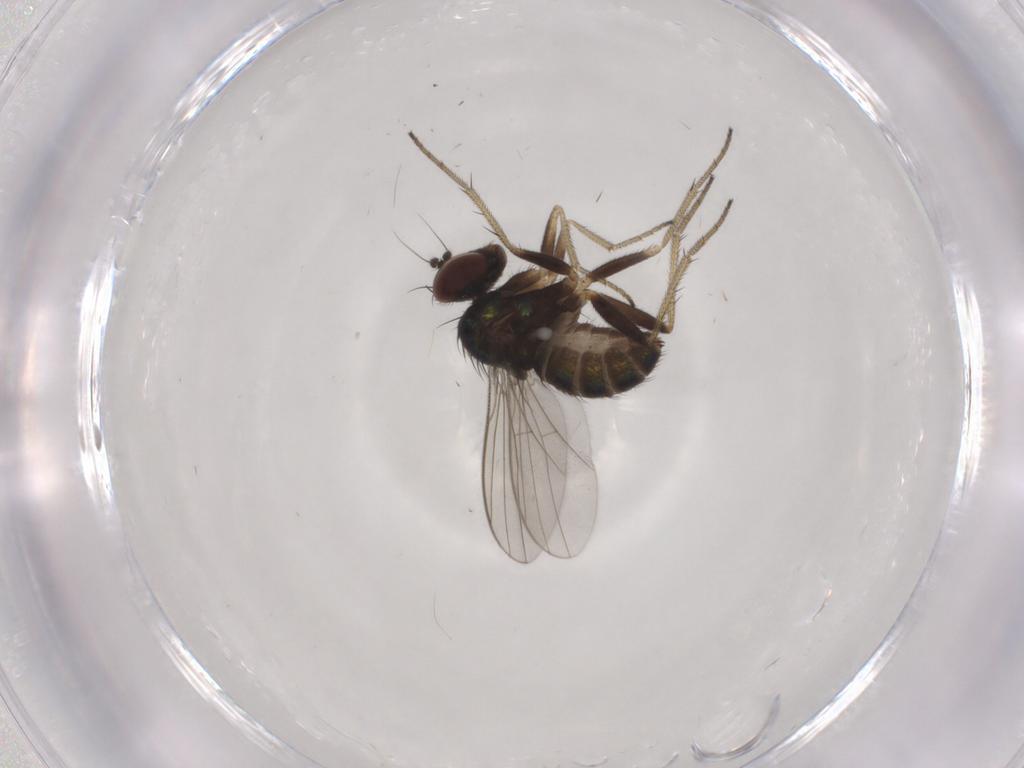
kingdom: Animalia
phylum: Arthropoda
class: Insecta
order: Diptera
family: Dolichopodidae
